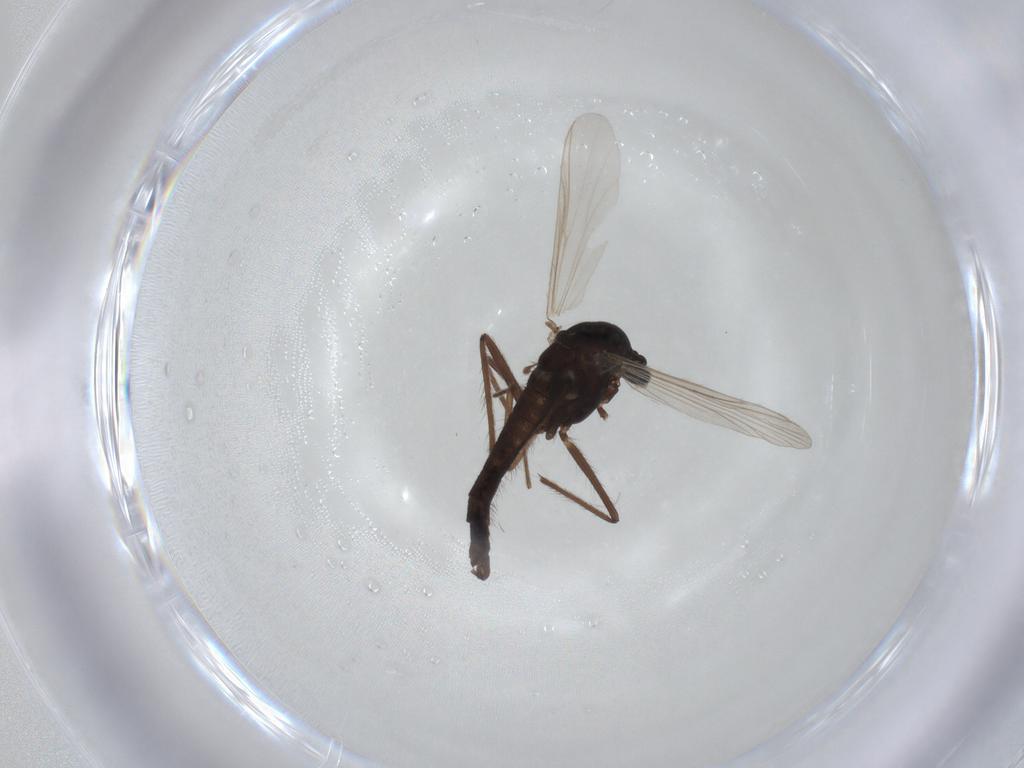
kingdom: Animalia
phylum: Arthropoda
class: Insecta
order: Diptera
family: Chironomidae
